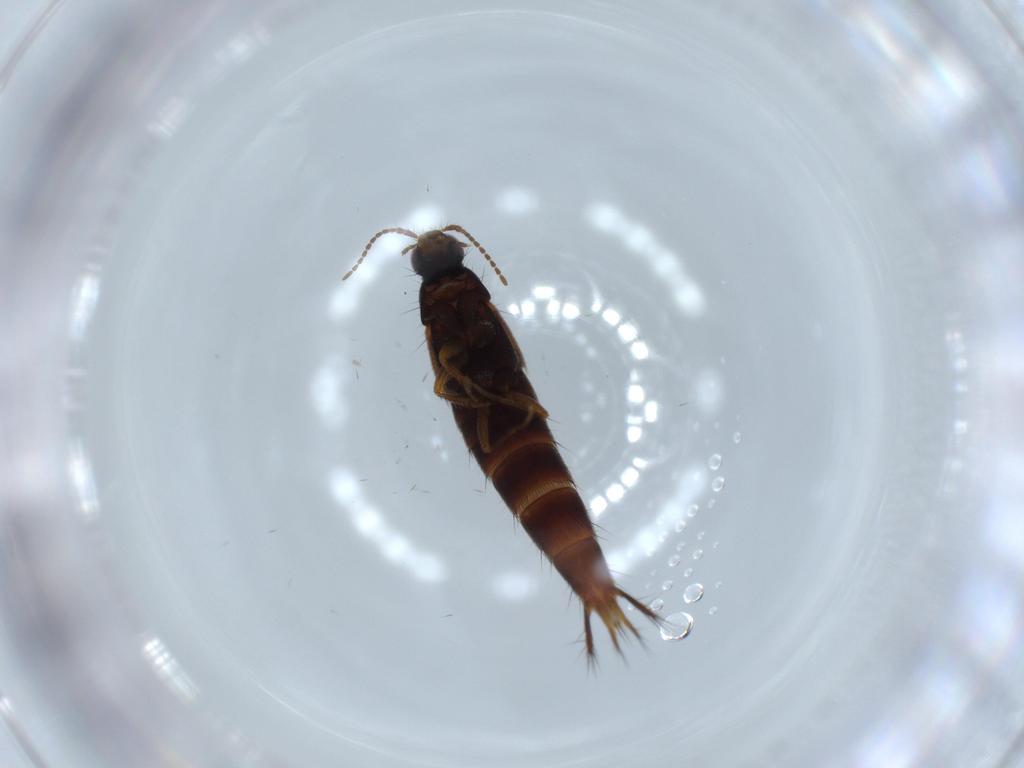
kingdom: Animalia
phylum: Arthropoda
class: Insecta
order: Coleoptera
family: Staphylinidae
